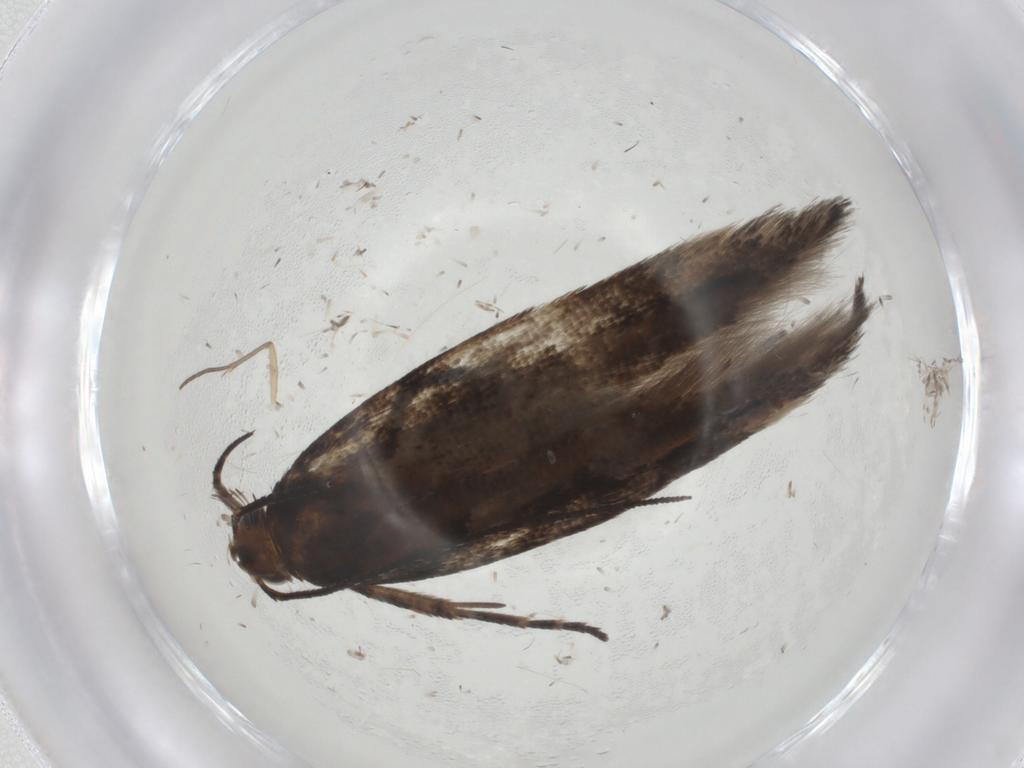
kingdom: Animalia
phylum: Arthropoda
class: Insecta
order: Lepidoptera
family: Gelechiidae
